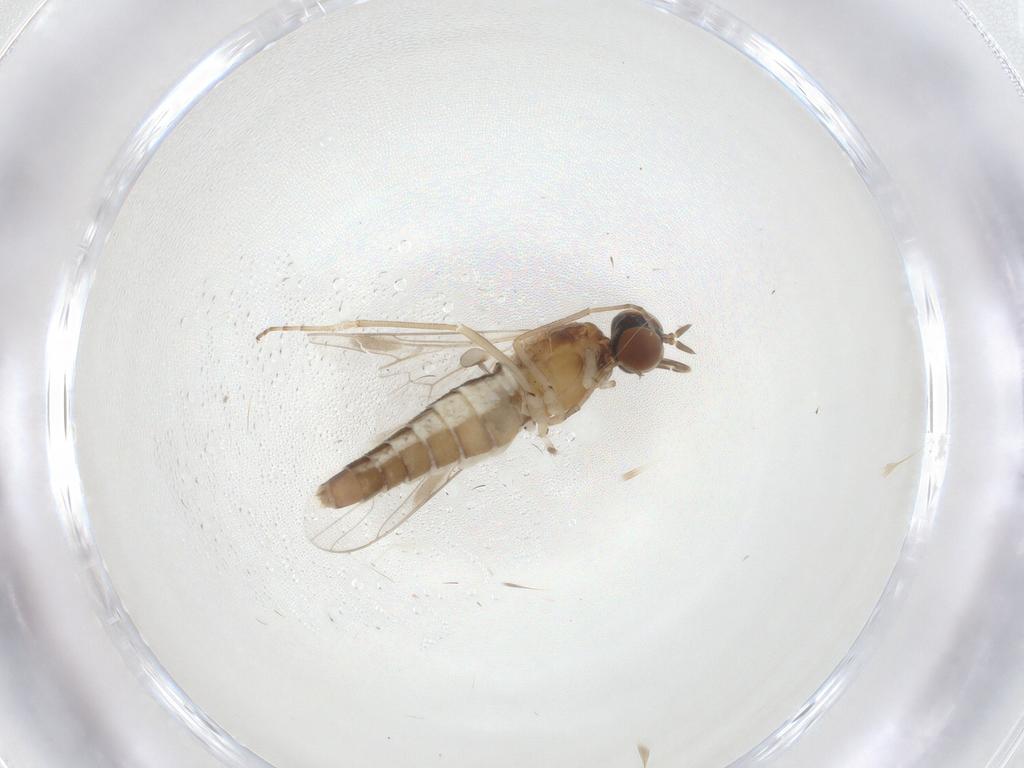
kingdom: Animalia
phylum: Arthropoda
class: Insecta
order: Diptera
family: Scenopinidae
